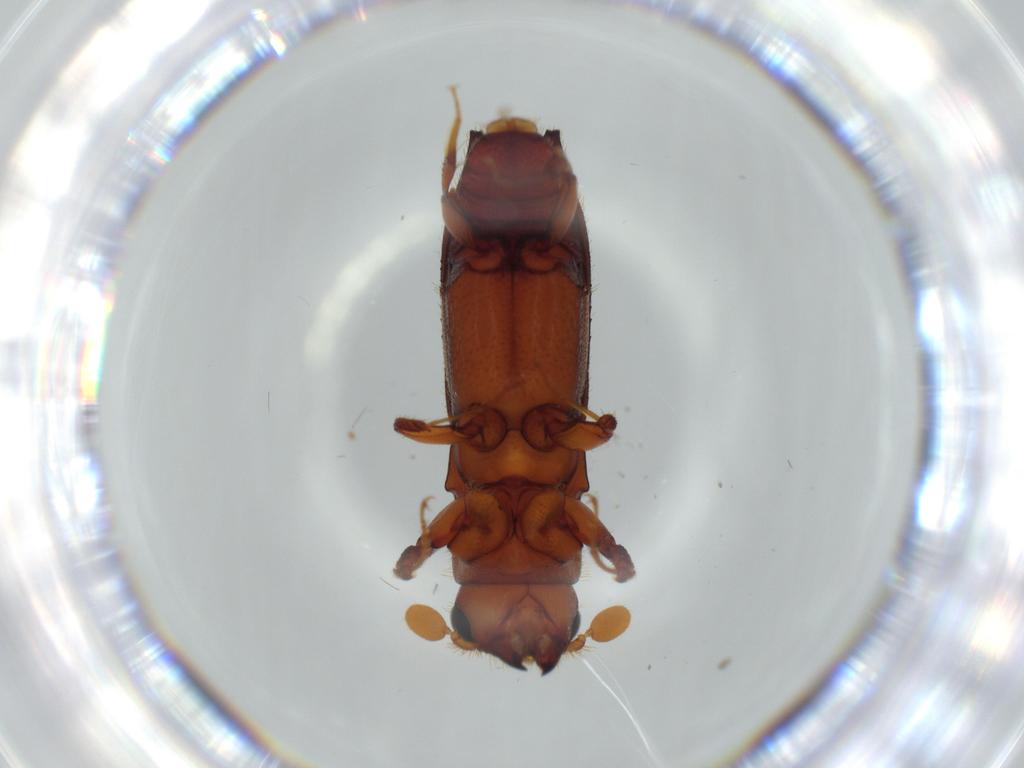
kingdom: Animalia
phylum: Arthropoda
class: Insecta
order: Coleoptera
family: Curculionidae
